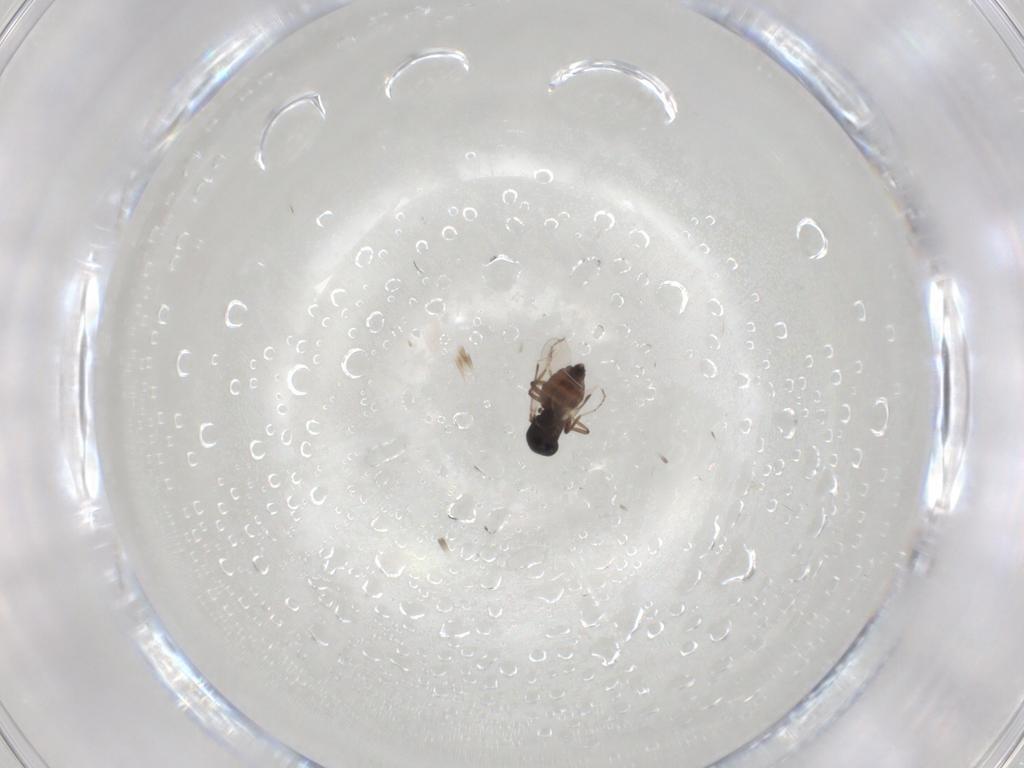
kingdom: Animalia
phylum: Arthropoda
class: Insecta
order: Diptera
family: Ceratopogonidae
